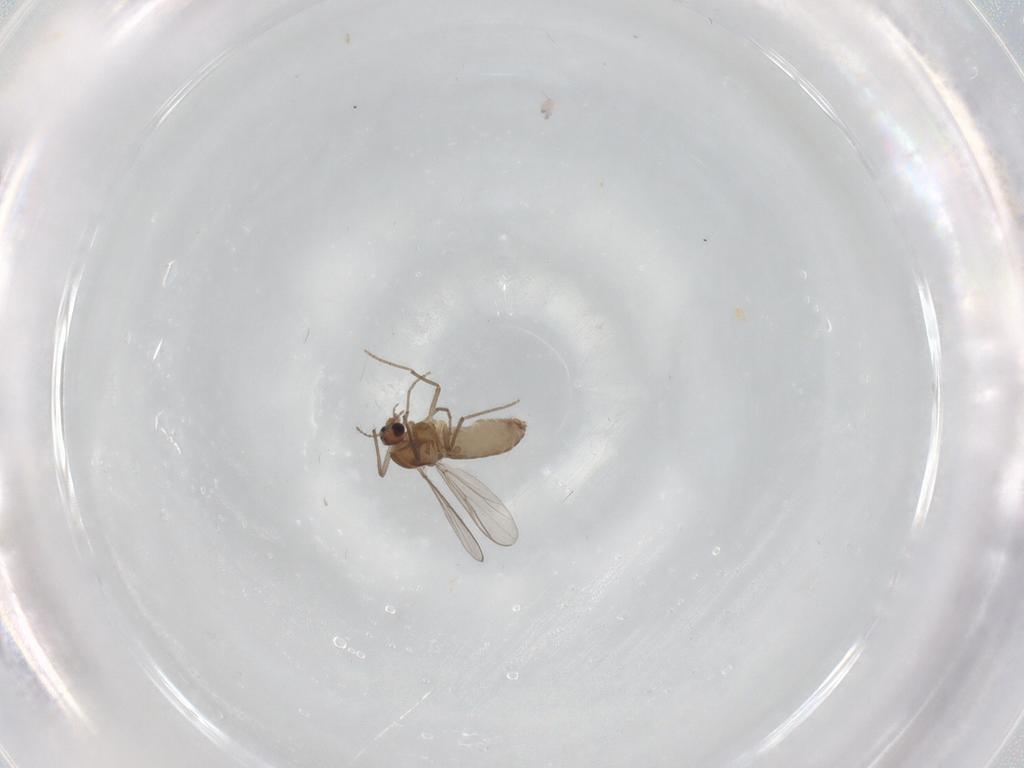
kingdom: Animalia
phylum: Arthropoda
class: Insecta
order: Diptera
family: Chironomidae
